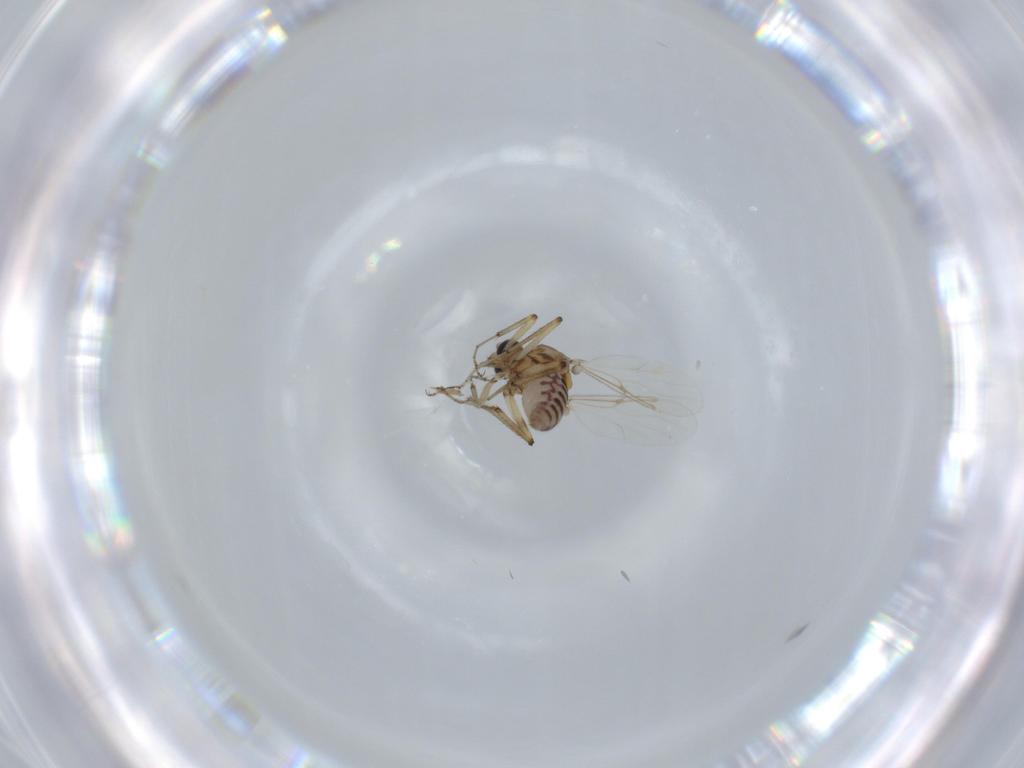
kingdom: Animalia
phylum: Arthropoda
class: Insecta
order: Diptera
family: Ceratopogonidae
